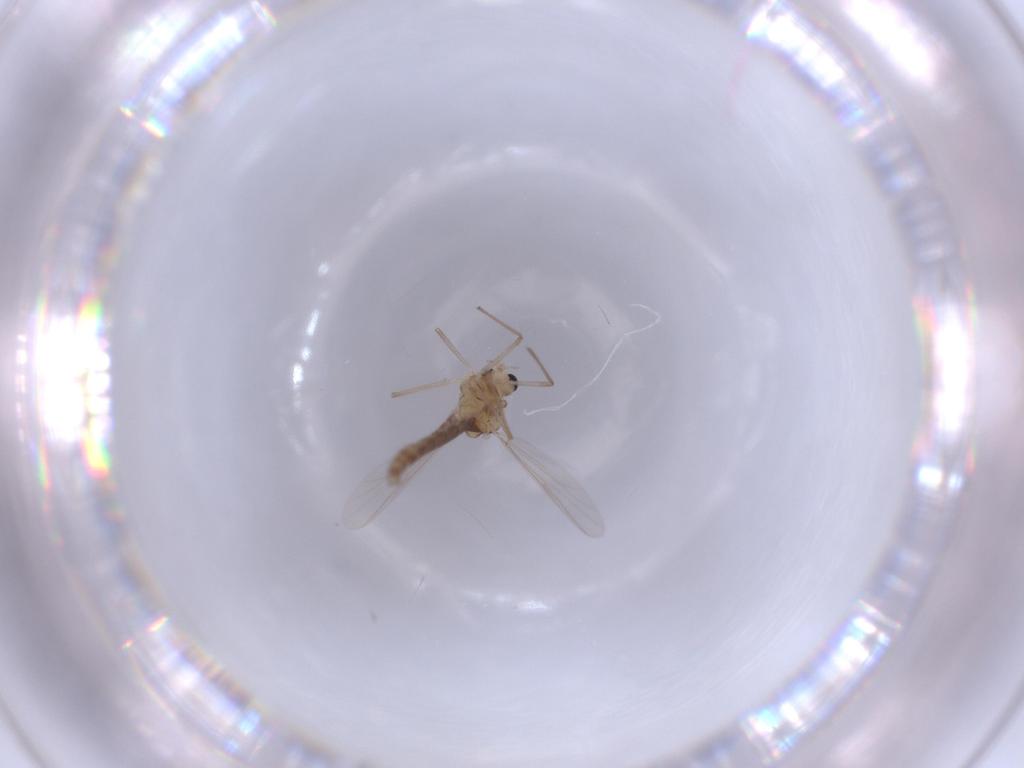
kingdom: Animalia
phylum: Arthropoda
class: Insecta
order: Diptera
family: Chironomidae
